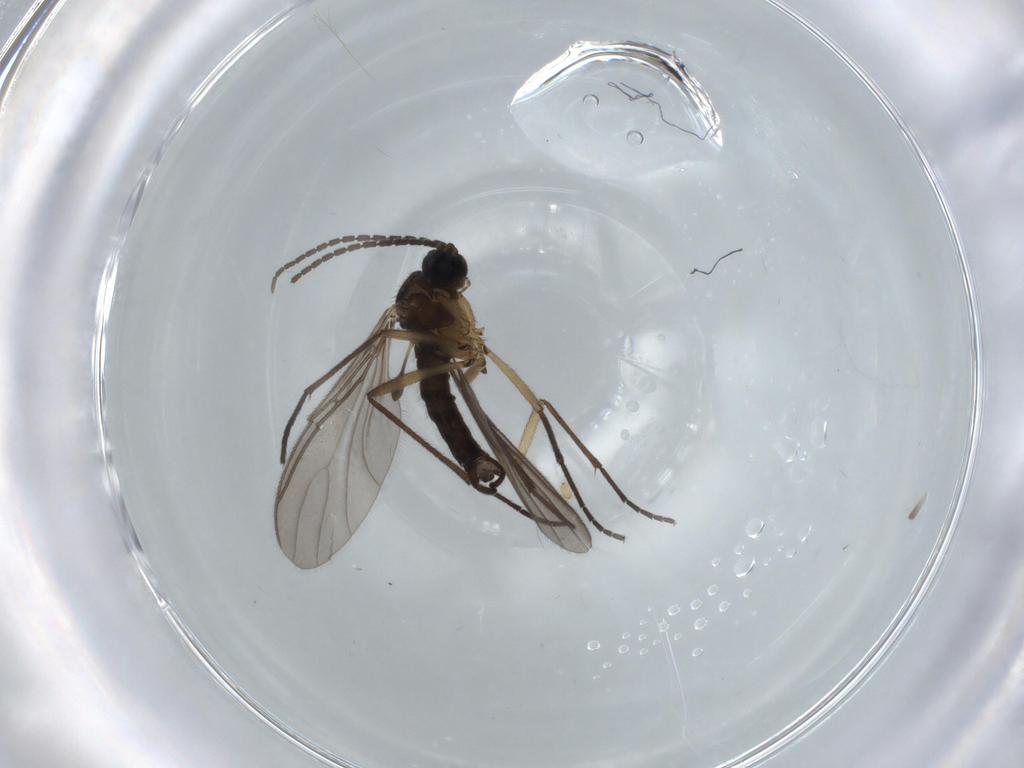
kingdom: Animalia
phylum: Arthropoda
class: Insecta
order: Diptera
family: Sciaridae
